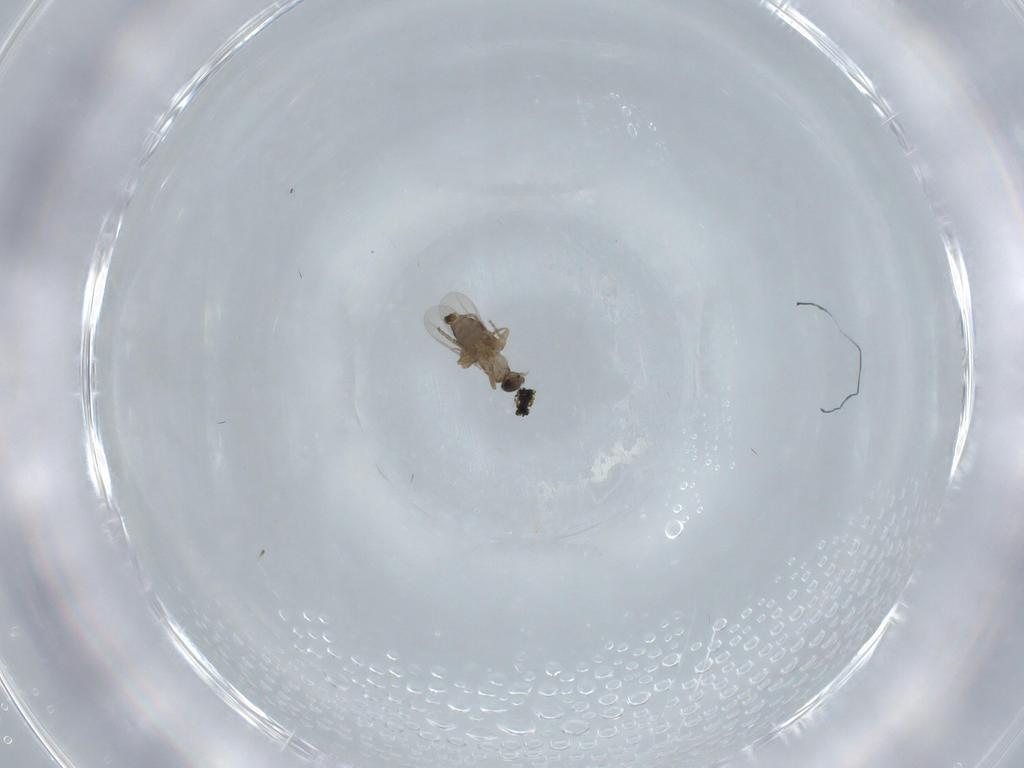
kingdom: Animalia
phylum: Arthropoda
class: Insecta
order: Diptera
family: Phoridae
